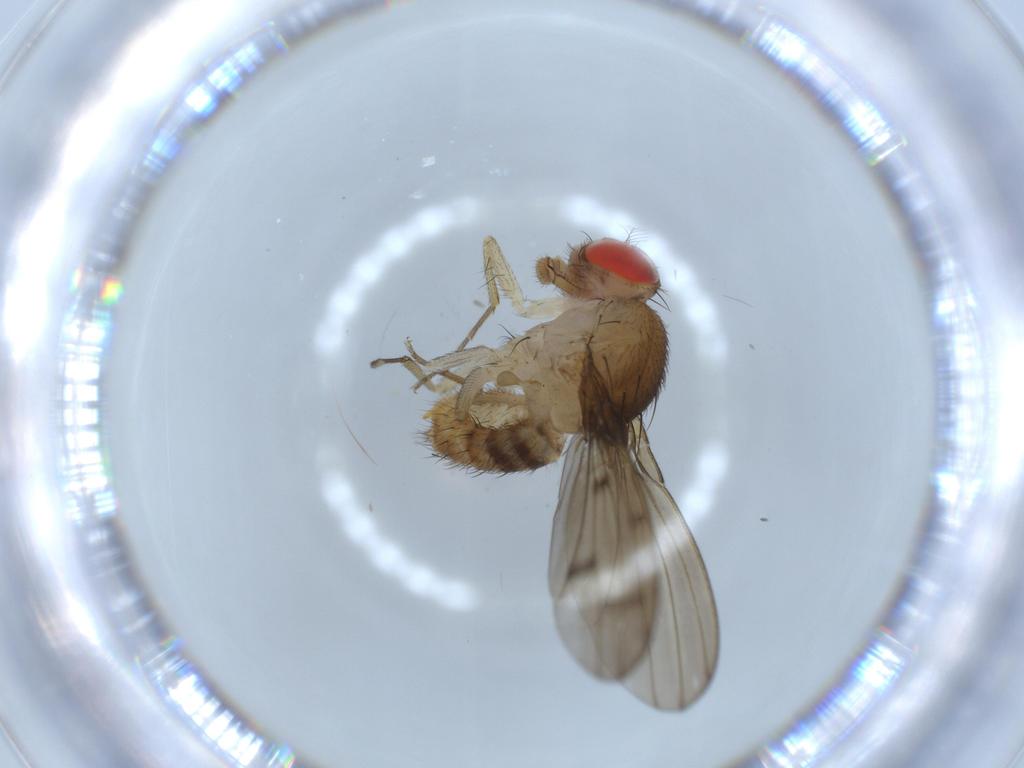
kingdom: Animalia
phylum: Arthropoda
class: Insecta
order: Diptera
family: Drosophilidae
